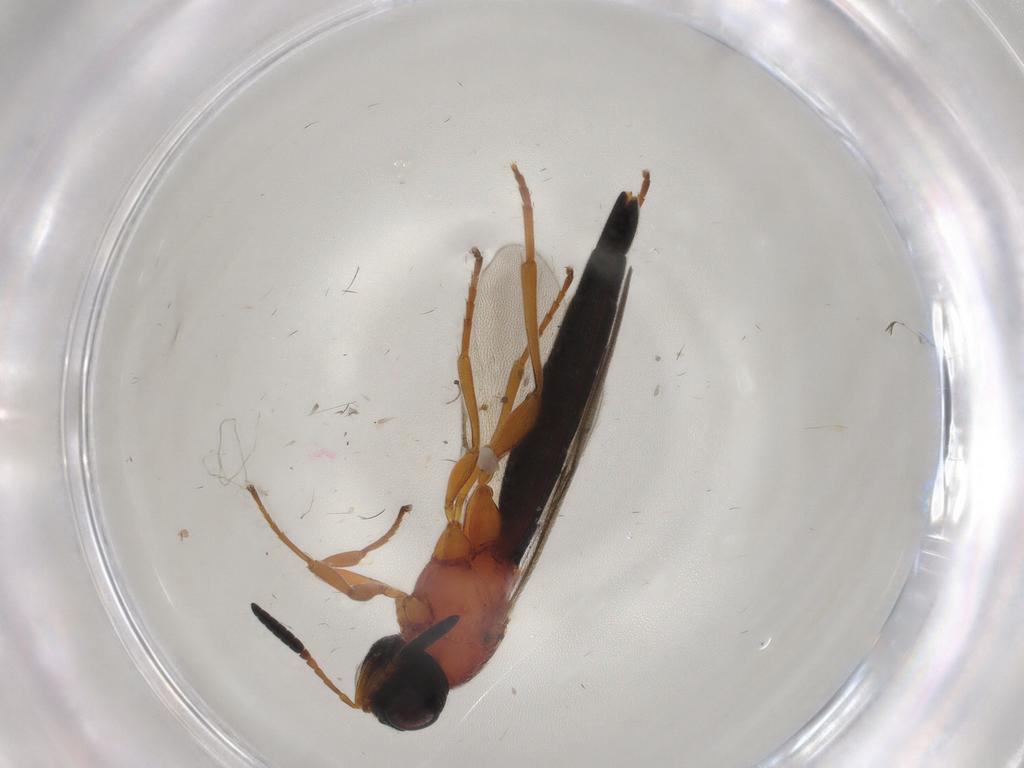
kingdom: Animalia
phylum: Arthropoda
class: Insecta
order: Hymenoptera
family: Scelionidae
